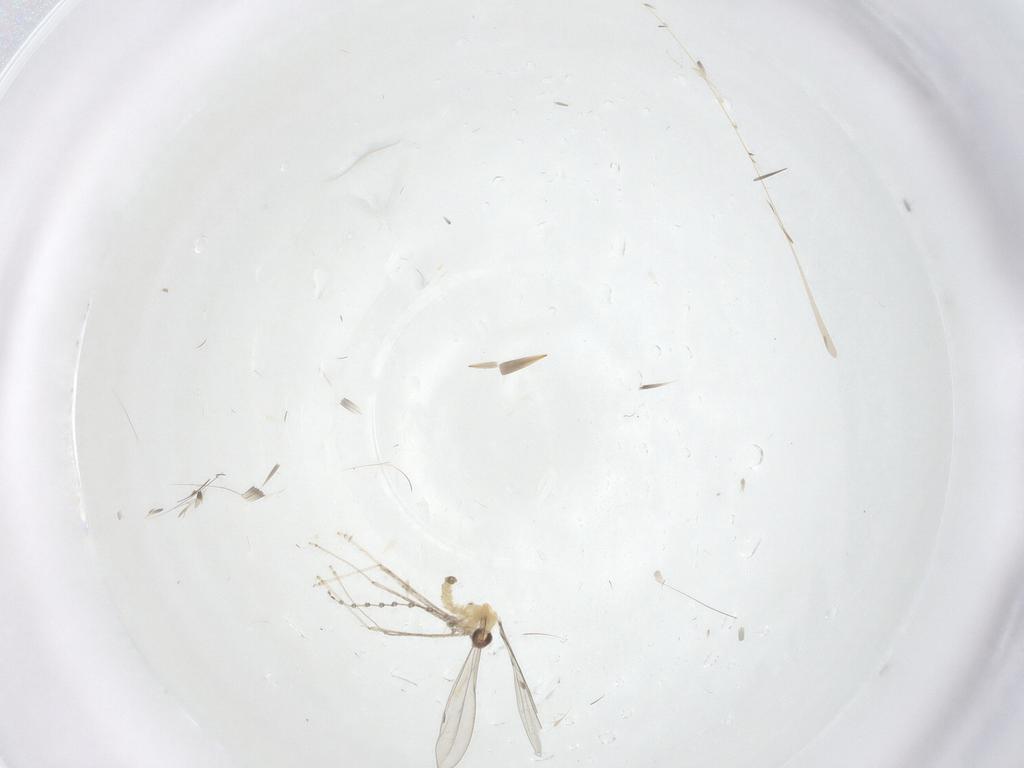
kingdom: Animalia
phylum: Arthropoda
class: Insecta
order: Diptera
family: Cecidomyiidae
